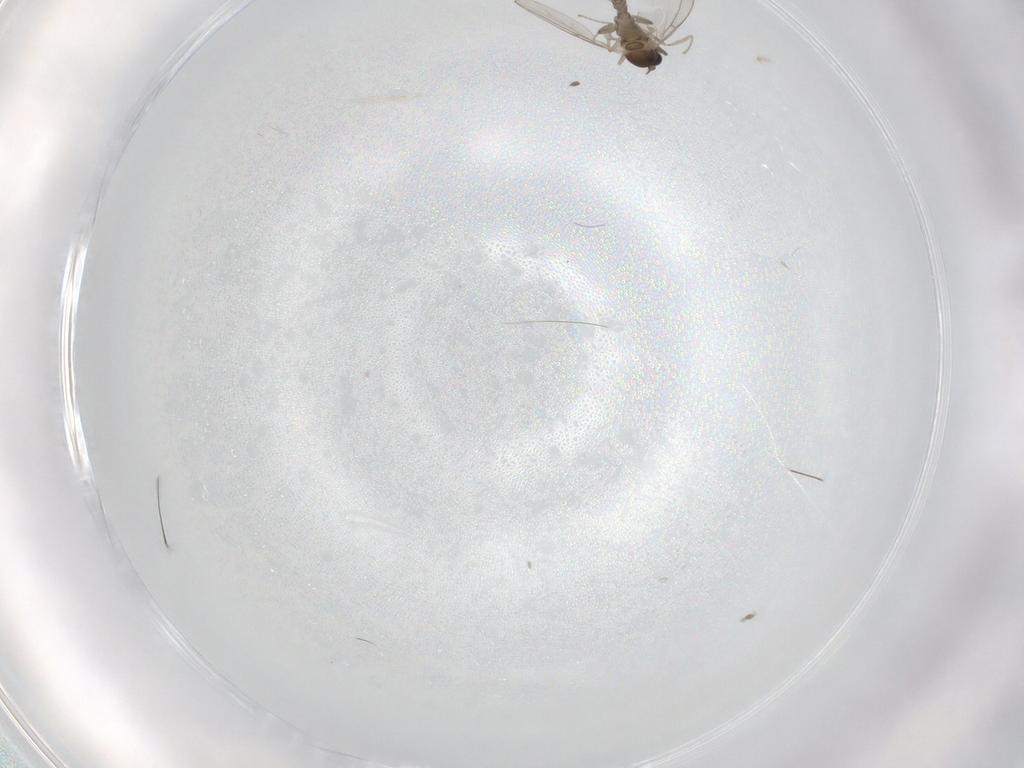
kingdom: Animalia
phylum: Arthropoda
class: Insecta
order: Diptera
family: Cecidomyiidae
